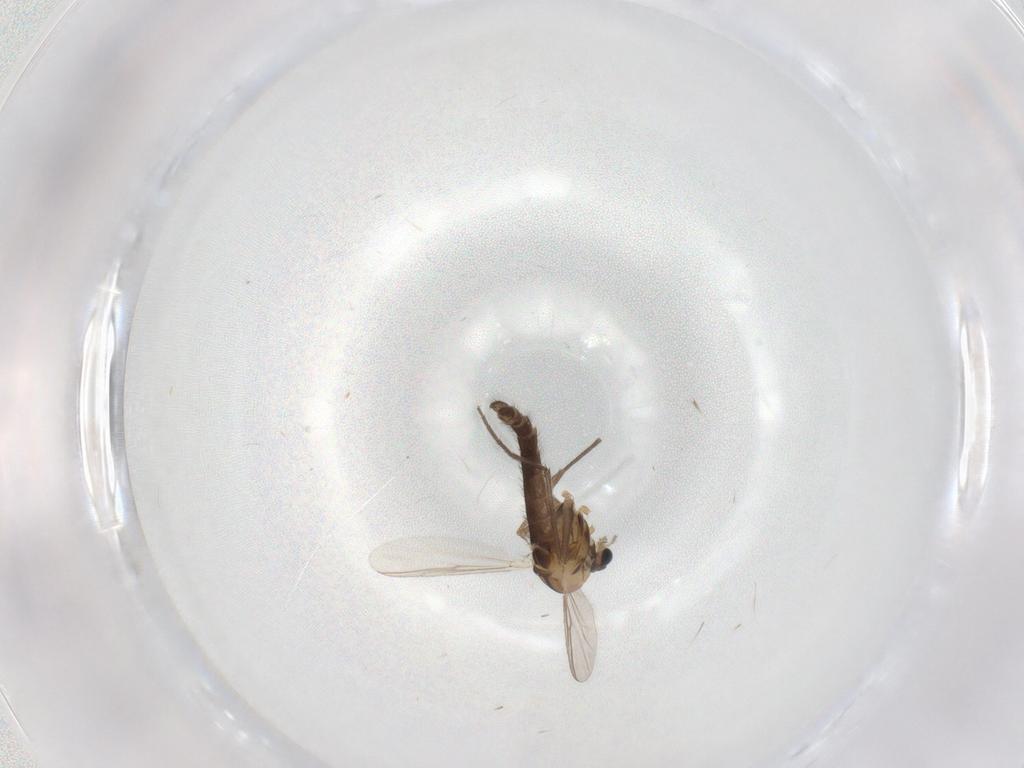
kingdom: Animalia
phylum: Arthropoda
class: Insecta
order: Diptera
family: Chironomidae
